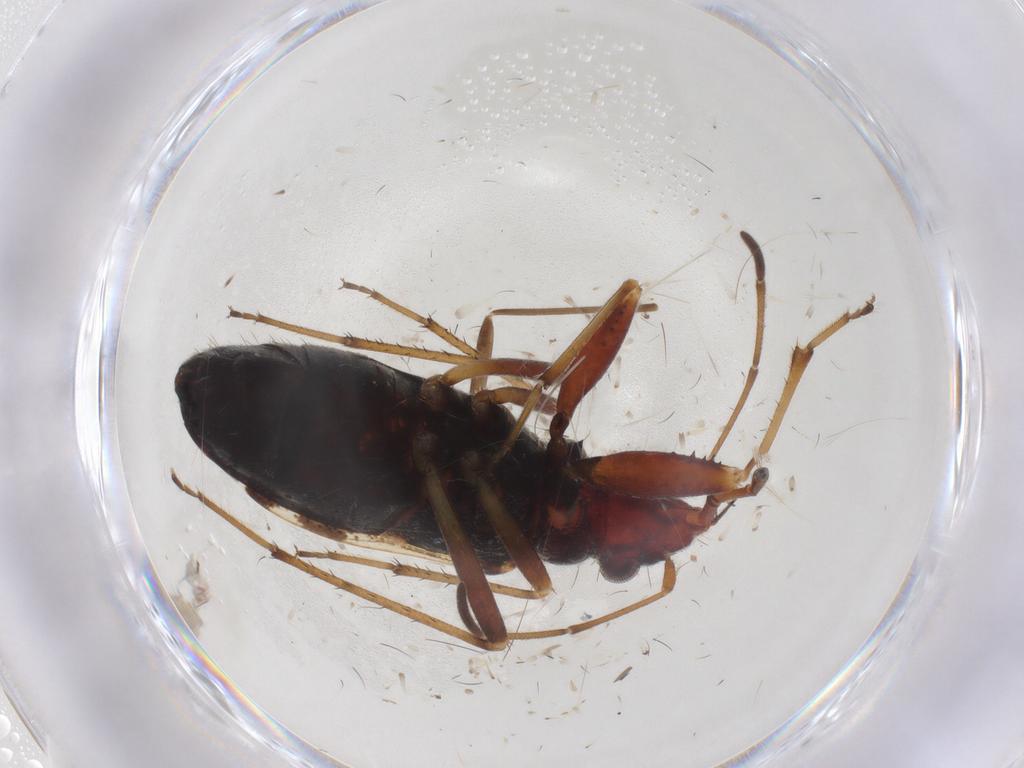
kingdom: Animalia
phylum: Arthropoda
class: Insecta
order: Hemiptera
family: Rhyparochromidae
